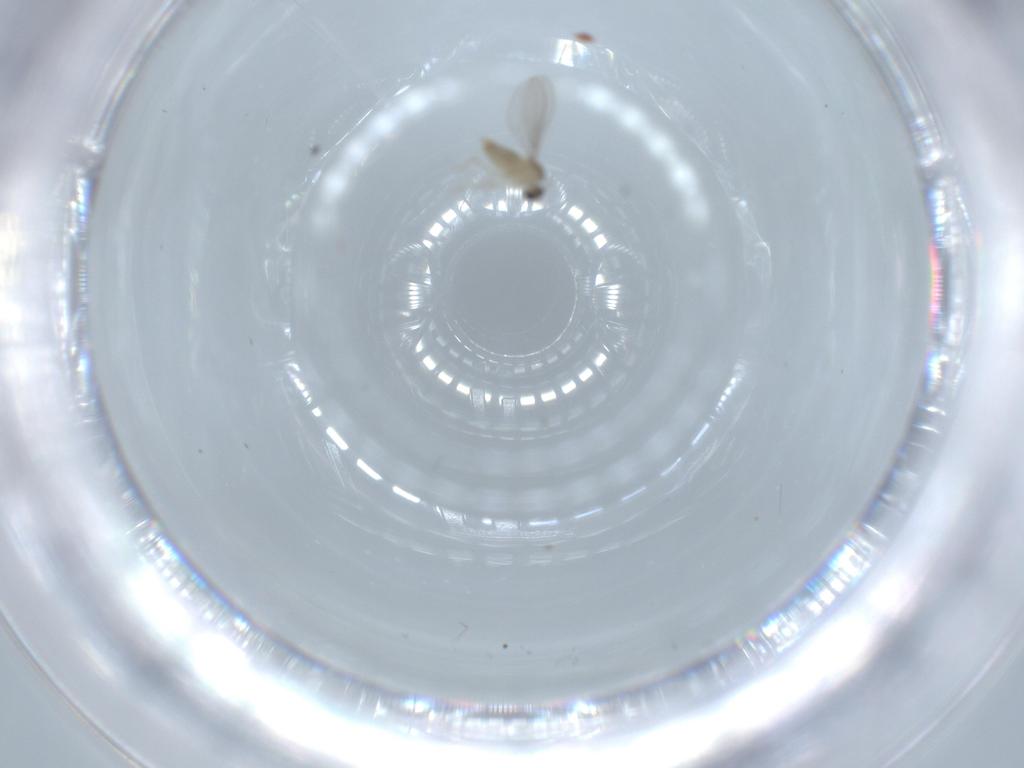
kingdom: Animalia
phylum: Arthropoda
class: Insecta
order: Diptera
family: Cecidomyiidae
